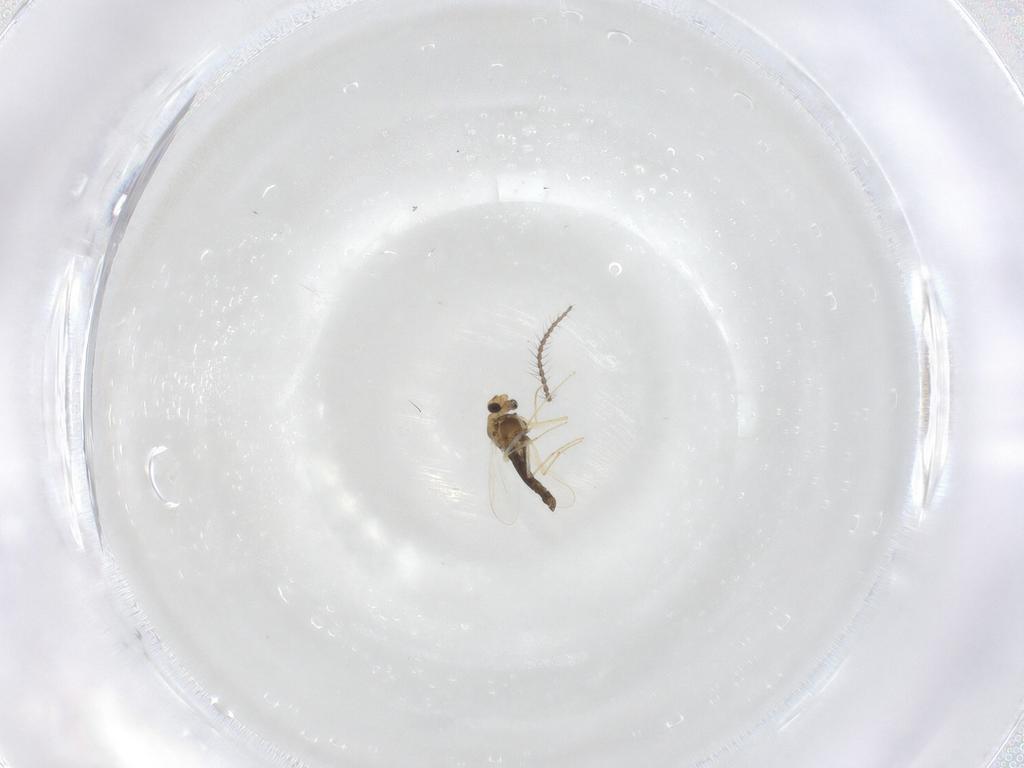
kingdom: Animalia
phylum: Arthropoda
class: Insecta
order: Diptera
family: Chironomidae
